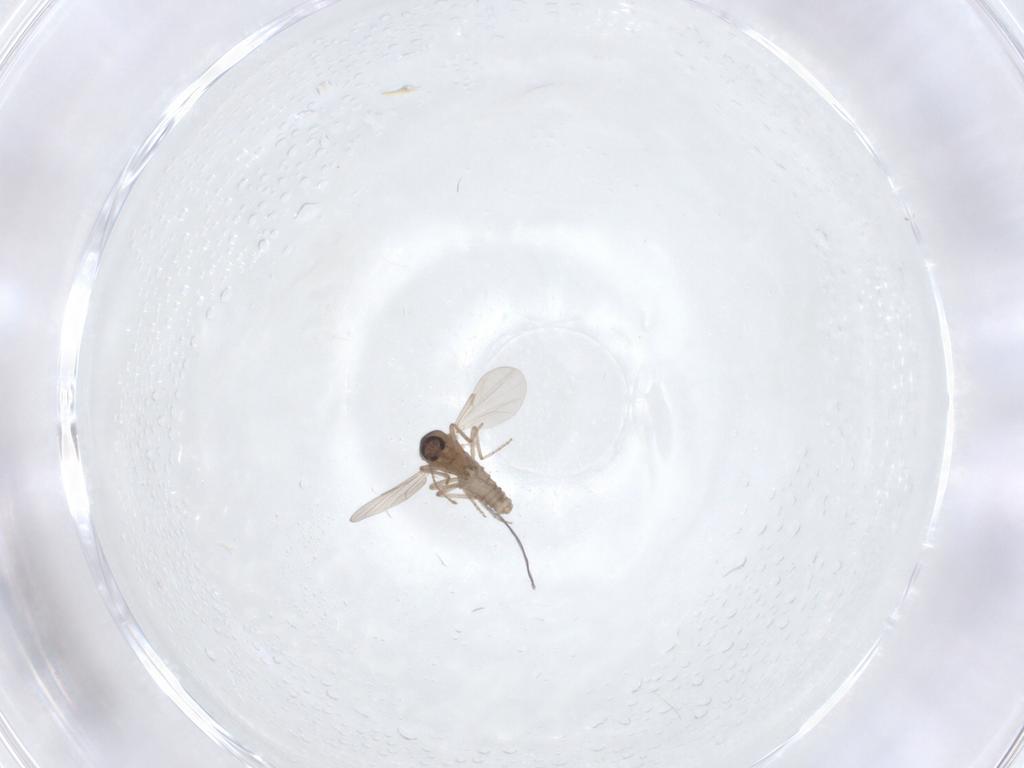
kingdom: Animalia
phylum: Arthropoda
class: Insecta
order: Diptera
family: Ceratopogonidae
